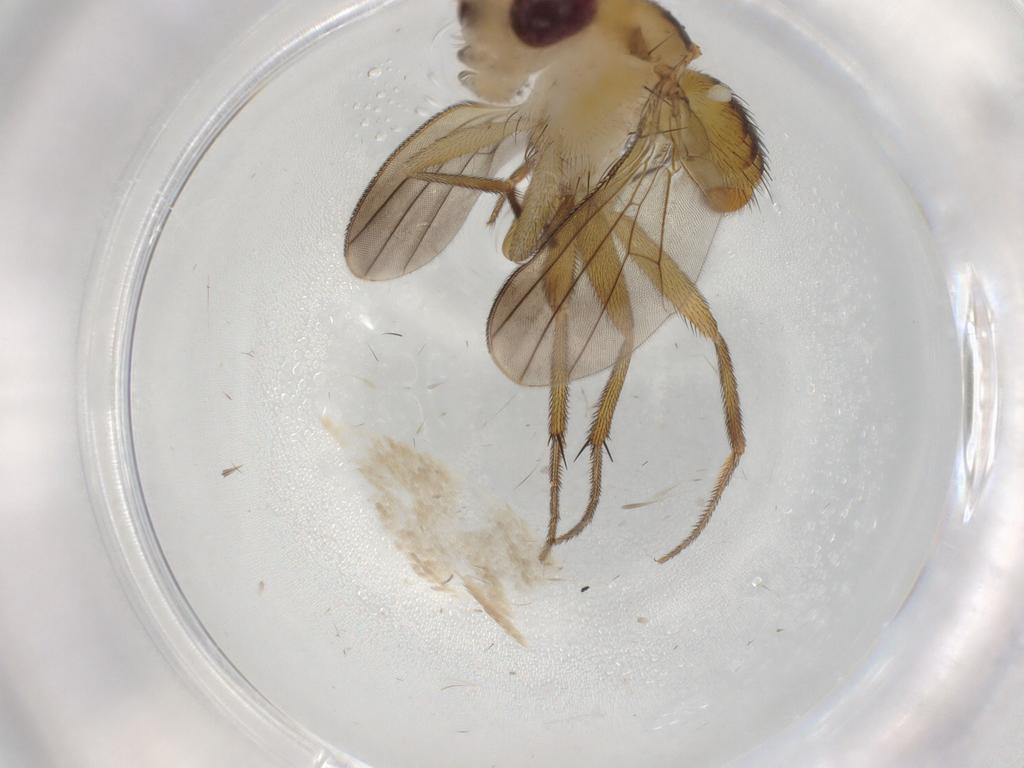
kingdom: Animalia
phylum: Arthropoda
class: Insecta
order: Diptera
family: Clusiidae
